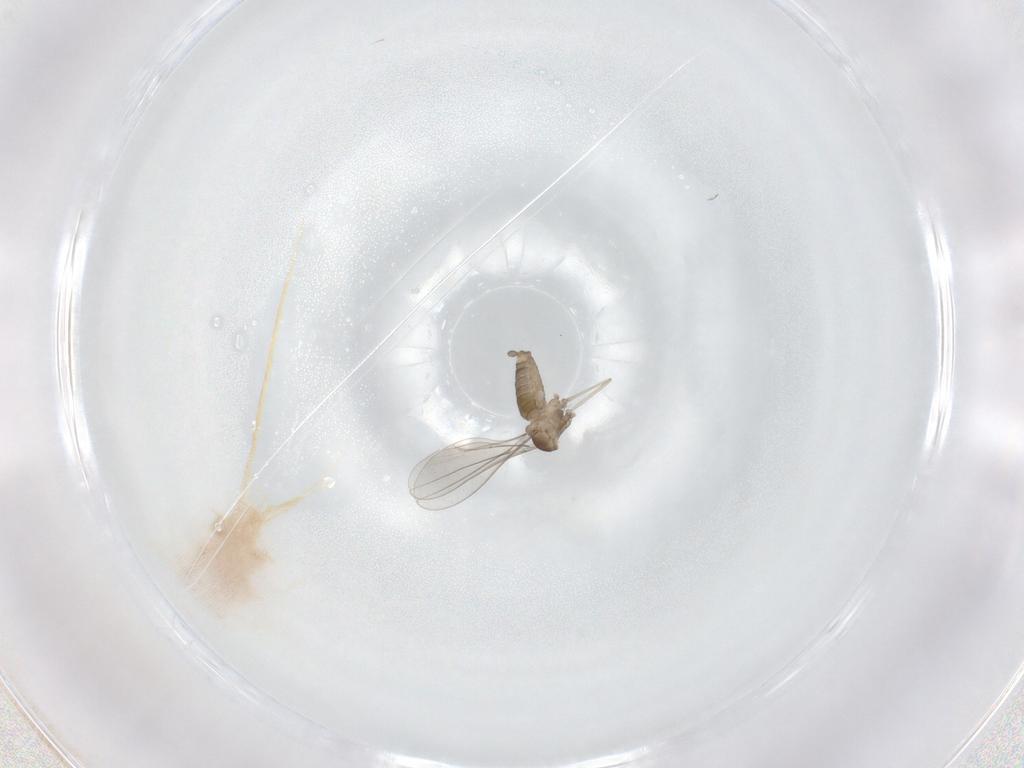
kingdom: Animalia
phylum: Arthropoda
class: Insecta
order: Diptera
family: Cecidomyiidae
